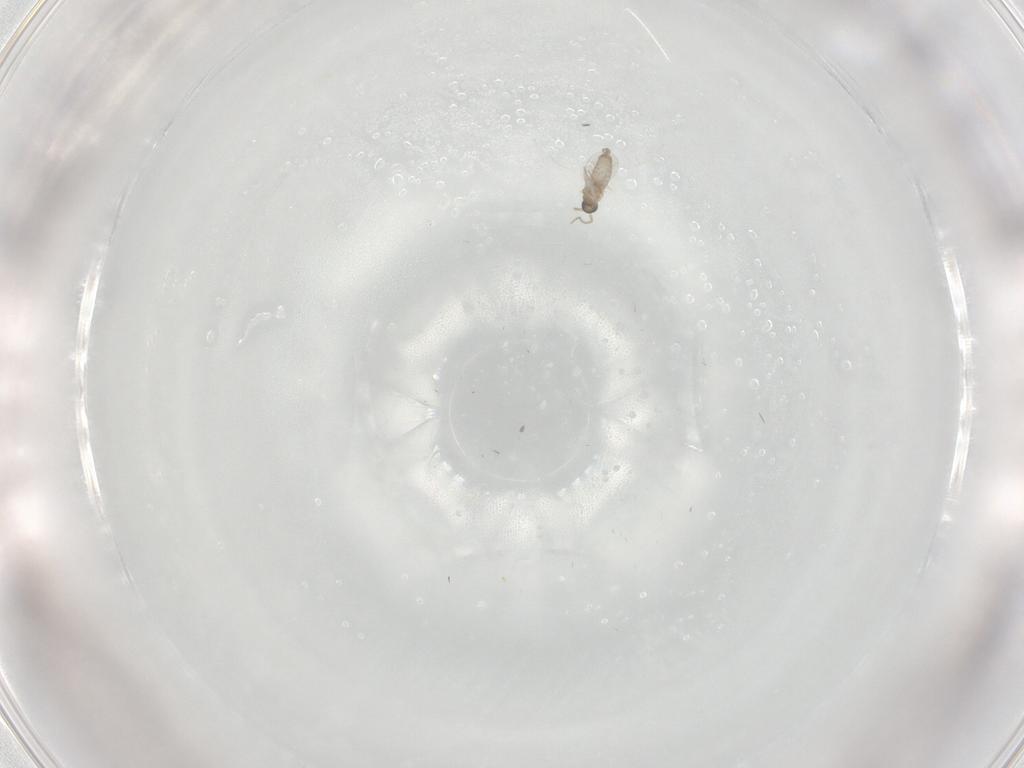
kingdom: Animalia
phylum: Arthropoda
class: Insecta
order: Diptera
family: Cecidomyiidae
